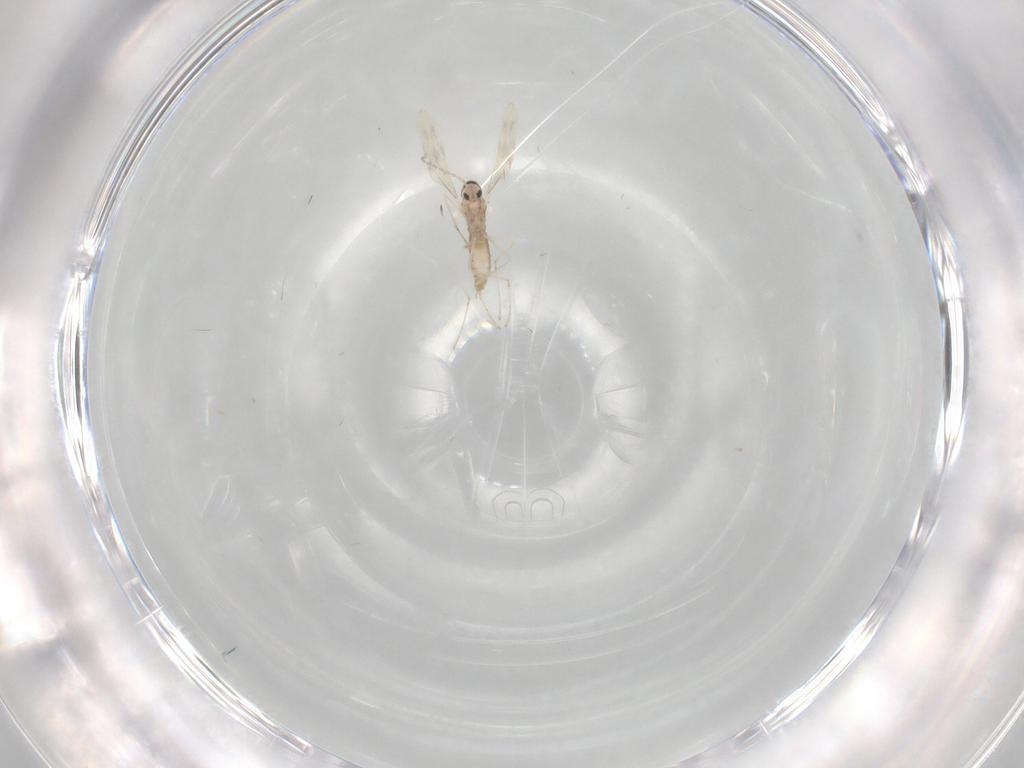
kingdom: Animalia
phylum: Arthropoda
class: Insecta
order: Diptera
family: Cecidomyiidae
